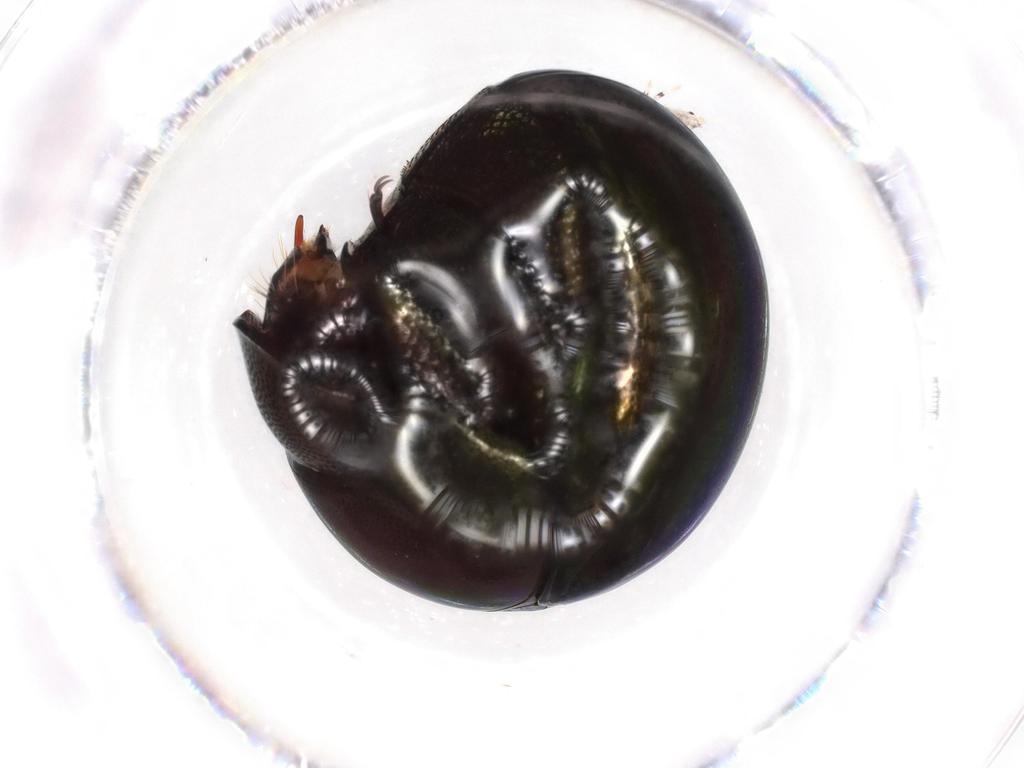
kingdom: Animalia
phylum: Arthropoda
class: Insecta
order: Coleoptera
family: Hybosoridae
